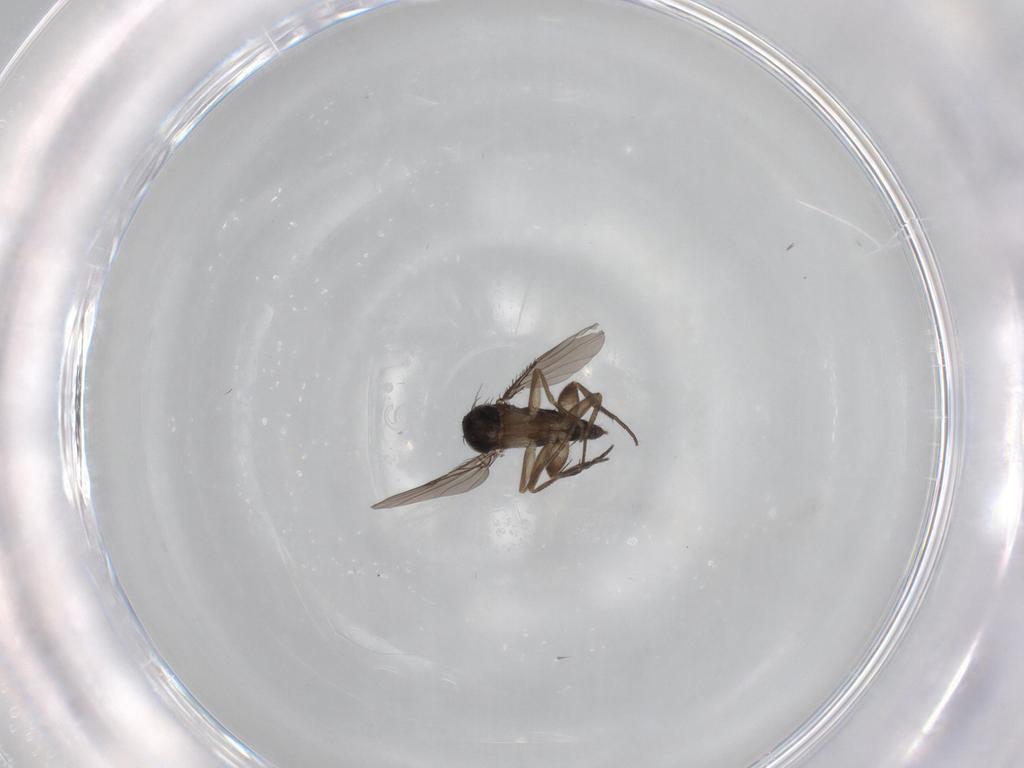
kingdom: Animalia
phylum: Arthropoda
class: Insecta
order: Diptera
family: Phoridae
